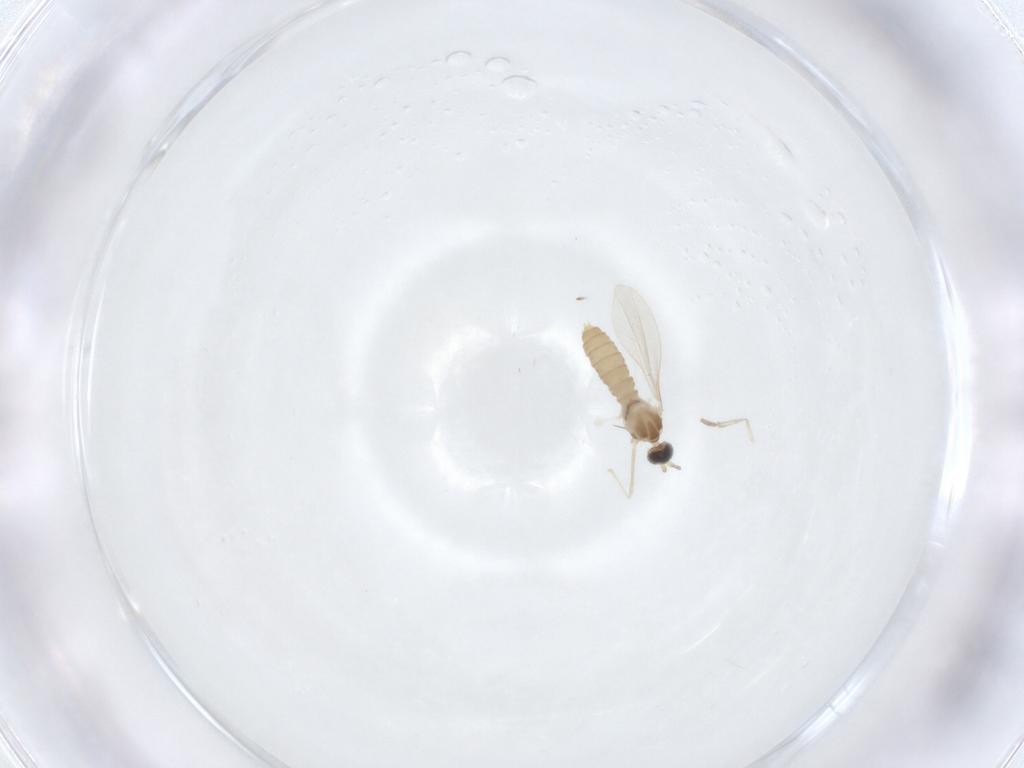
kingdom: Animalia
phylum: Arthropoda
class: Insecta
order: Diptera
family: Cecidomyiidae
